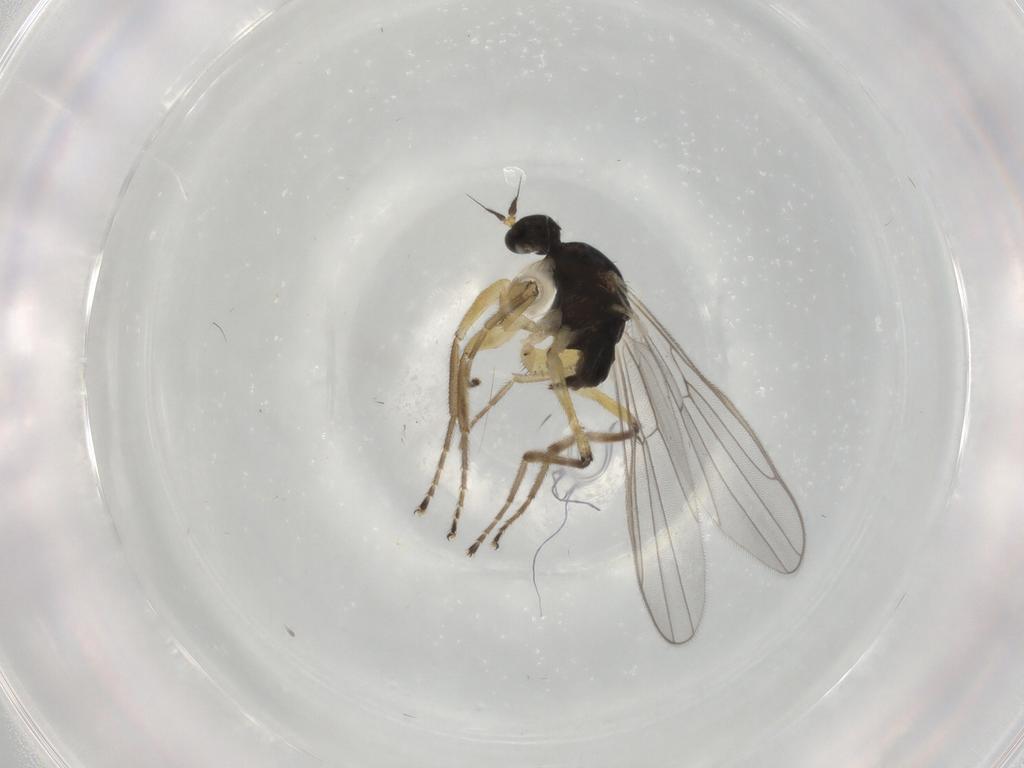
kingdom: Animalia
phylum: Arthropoda
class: Insecta
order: Diptera
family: Hybotidae
